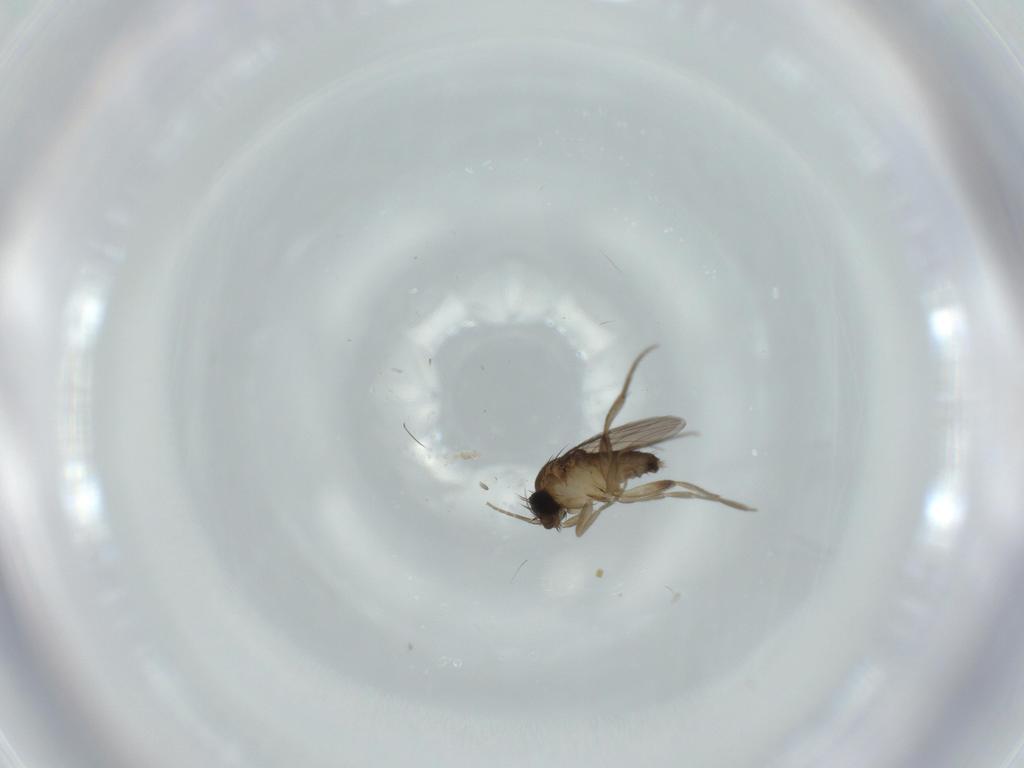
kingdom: Animalia
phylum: Arthropoda
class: Insecta
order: Diptera
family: Phoridae
